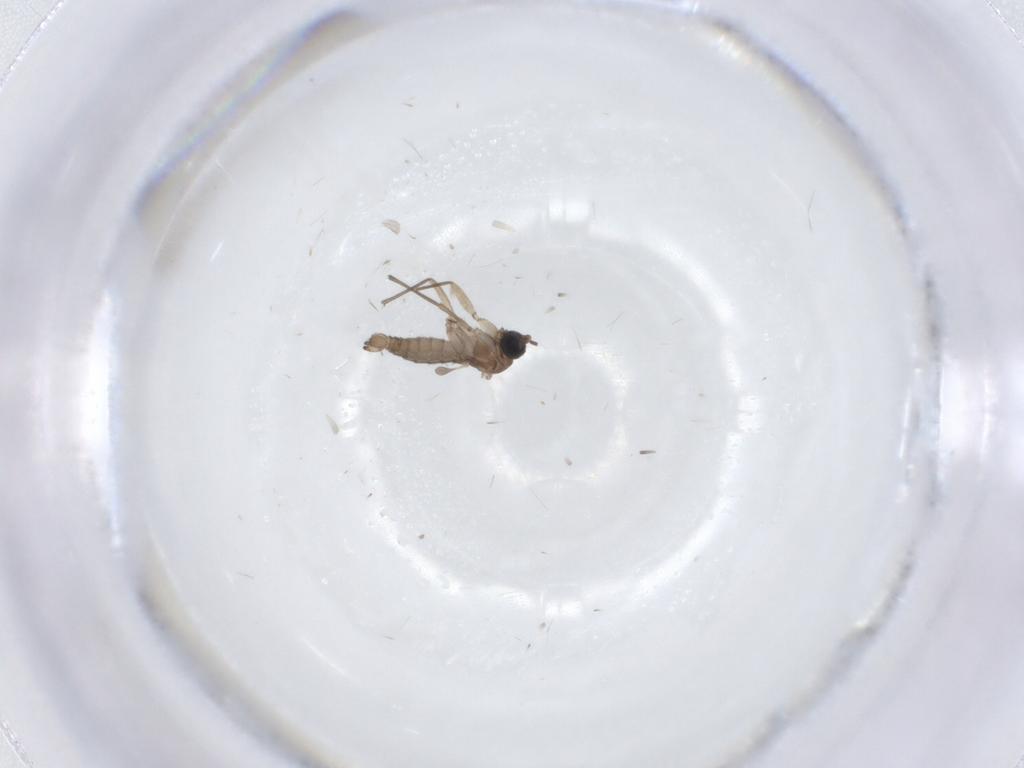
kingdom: Animalia
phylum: Arthropoda
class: Insecta
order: Diptera
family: Sciaridae
